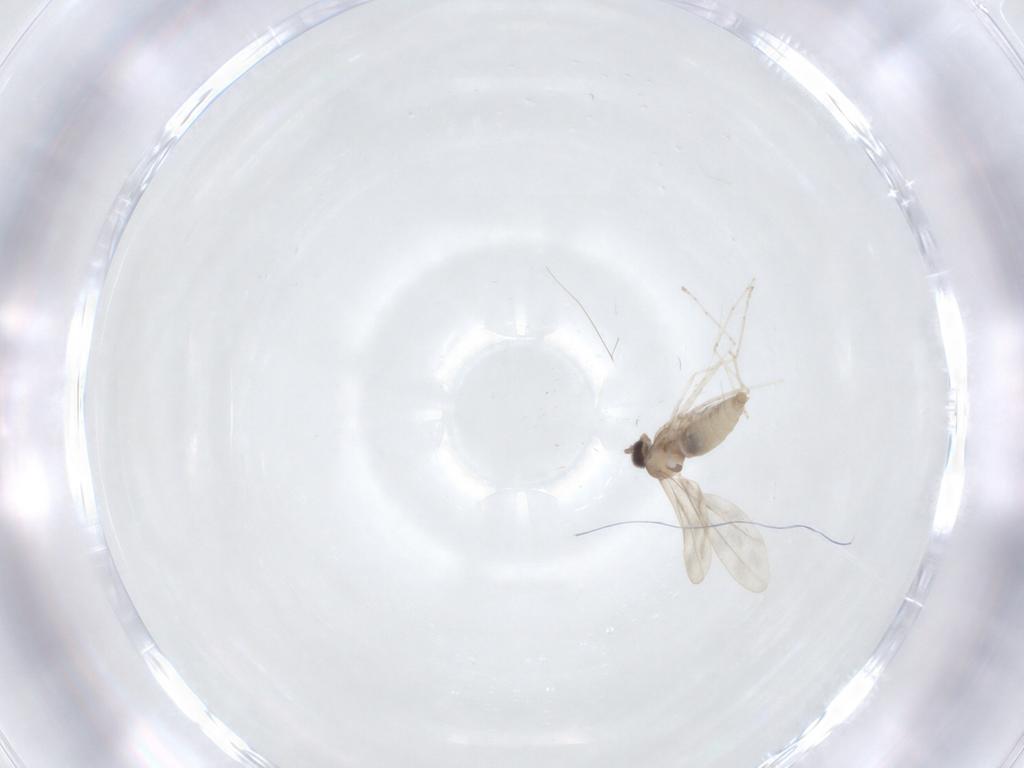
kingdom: Animalia
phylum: Arthropoda
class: Insecta
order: Diptera
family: Cecidomyiidae
